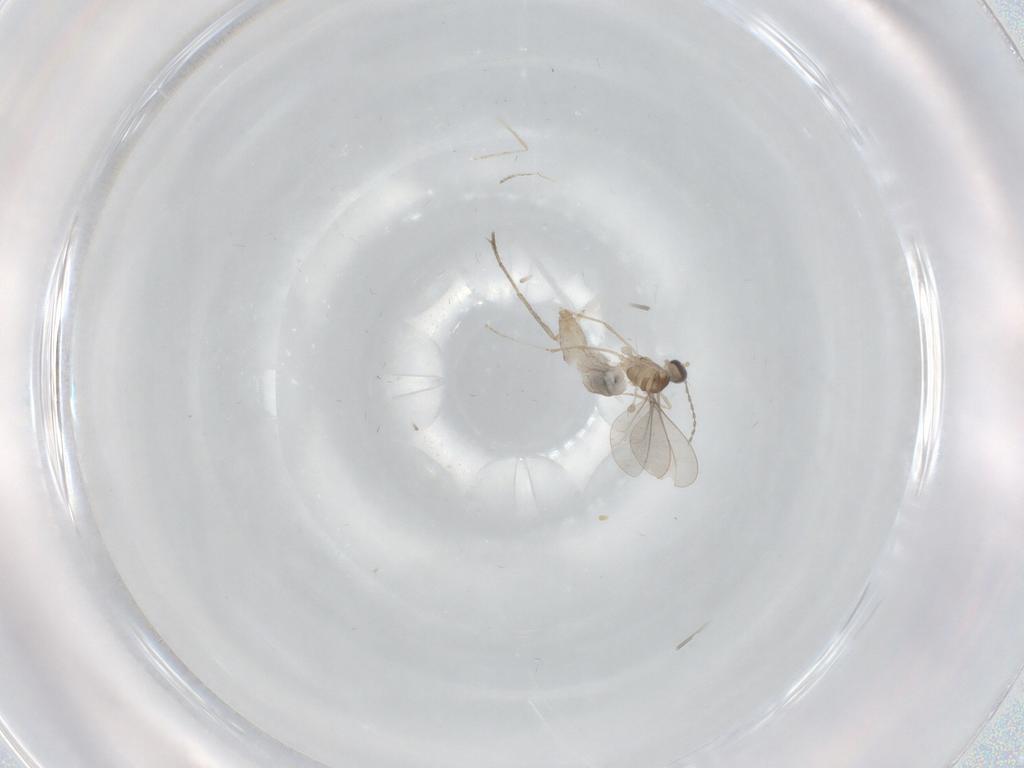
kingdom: Animalia
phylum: Arthropoda
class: Insecta
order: Diptera
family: Cecidomyiidae
